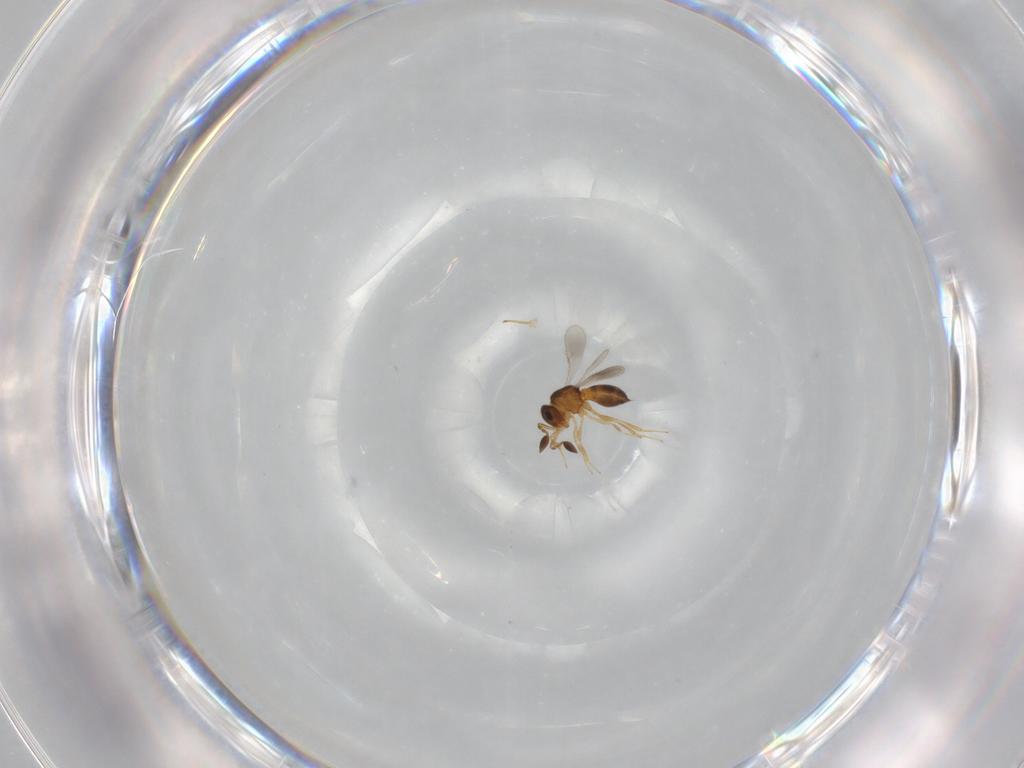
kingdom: Animalia
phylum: Arthropoda
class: Insecta
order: Hymenoptera
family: Scelionidae
